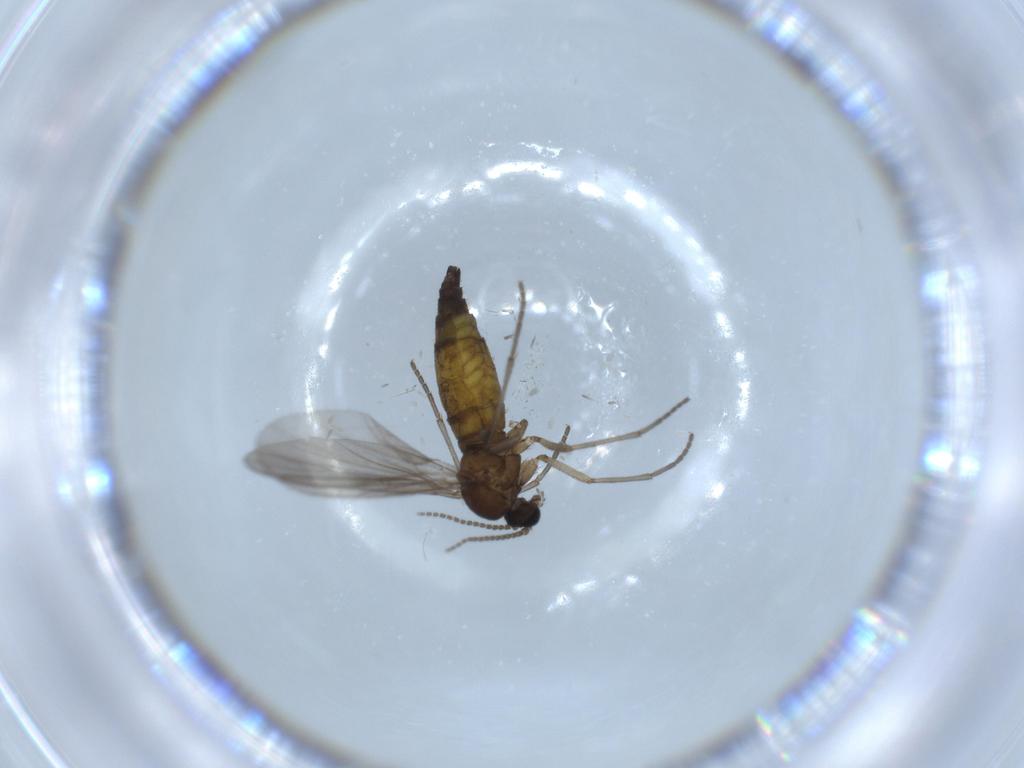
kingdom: Animalia
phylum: Arthropoda
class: Insecta
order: Diptera
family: Sciaridae
